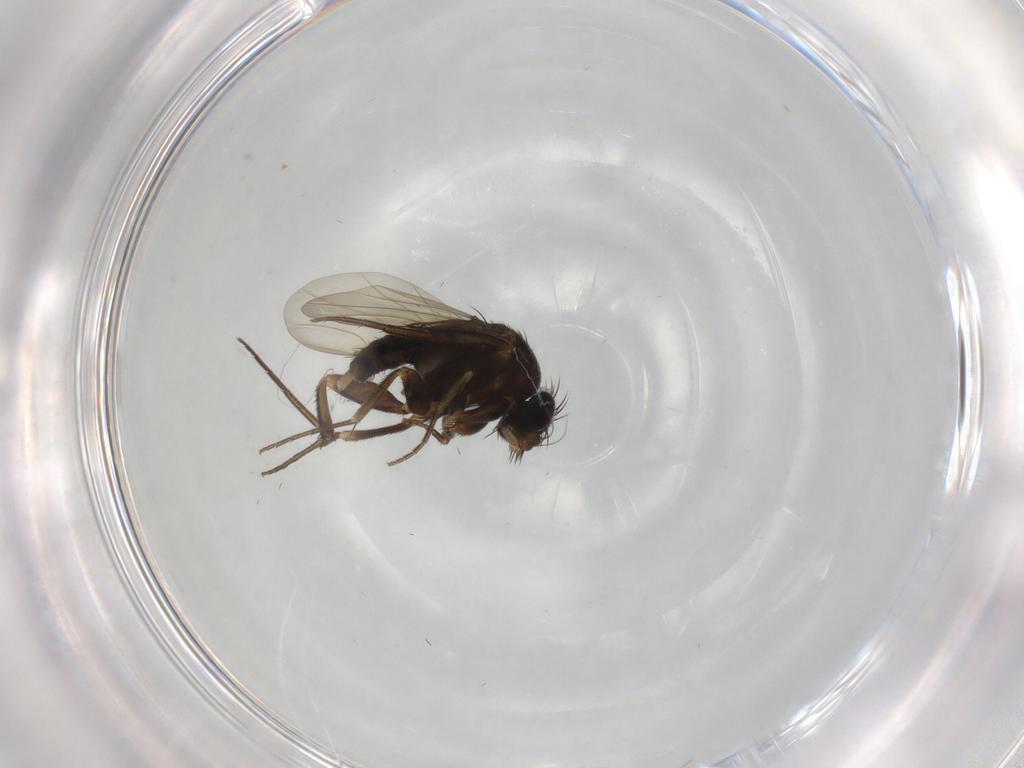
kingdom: Animalia
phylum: Arthropoda
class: Insecta
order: Diptera
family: Phoridae
